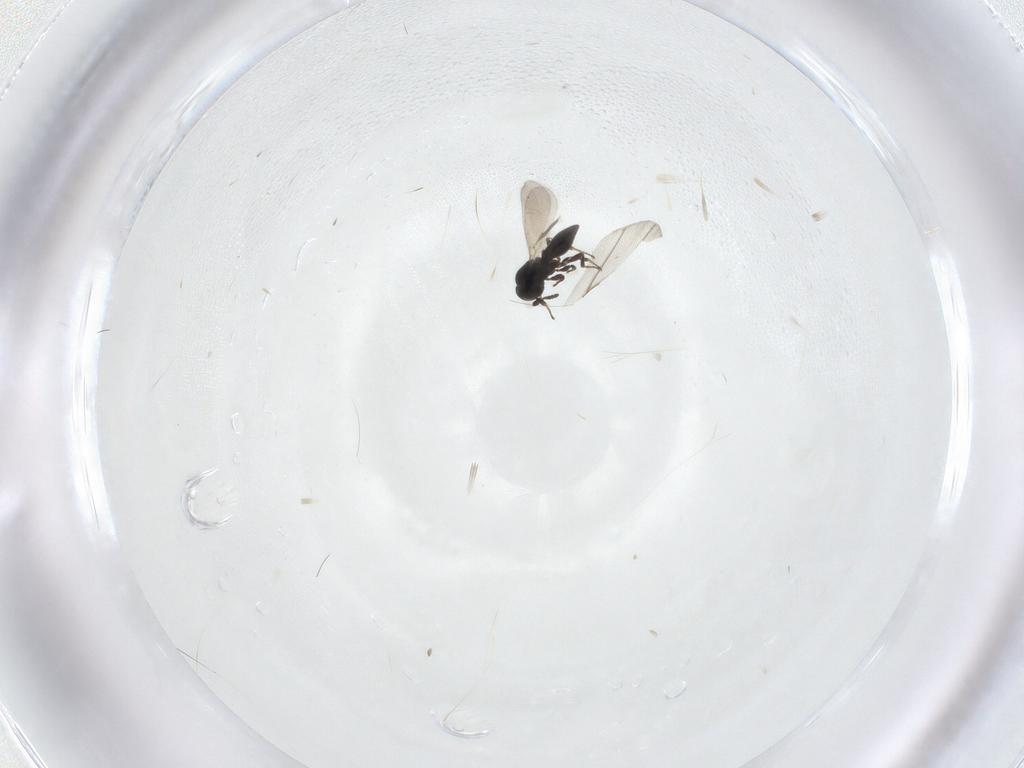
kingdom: Animalia
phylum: Arthropoda
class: Insecta
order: Hymenoptera
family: Platygastridae
